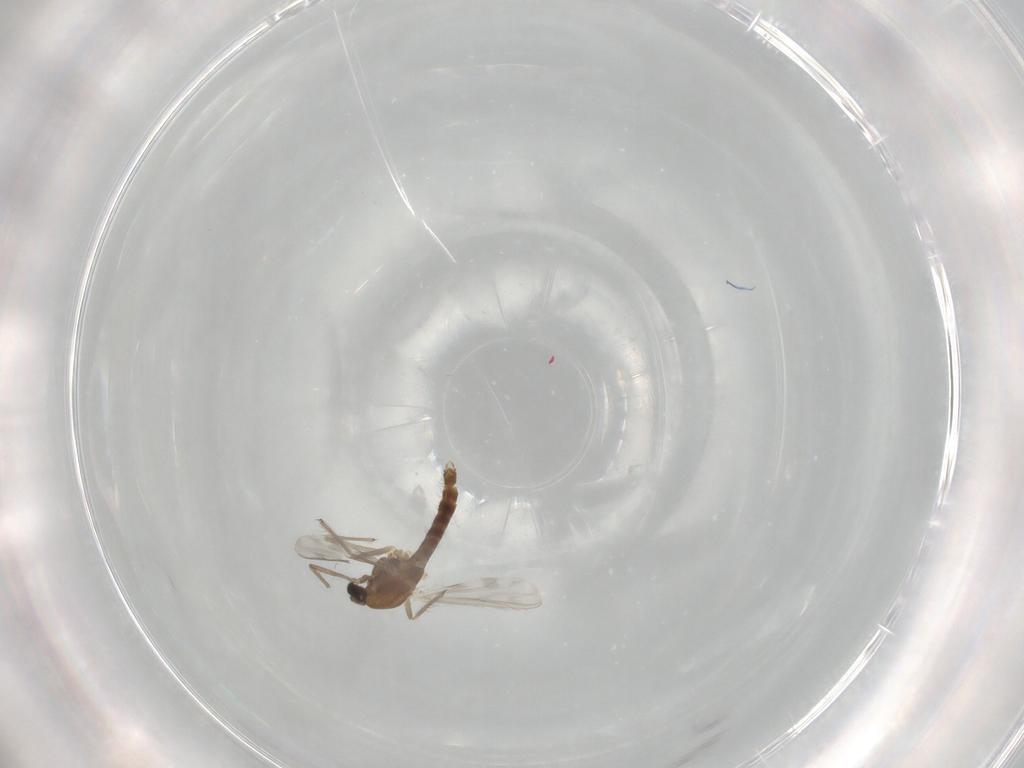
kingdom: Animalia
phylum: Arthropoda
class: Insecta
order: Diptera
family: Chironomidae
